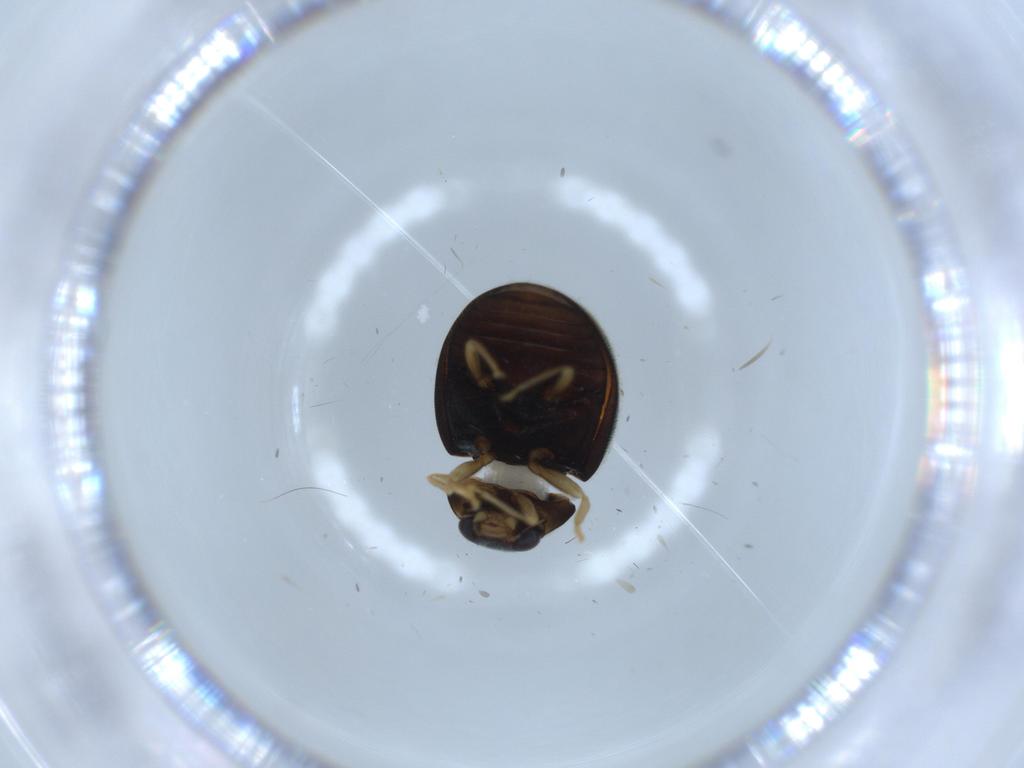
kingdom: Animalia
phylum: Arthropoda
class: Insecta
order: Coleoptera
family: Coccinellidae
